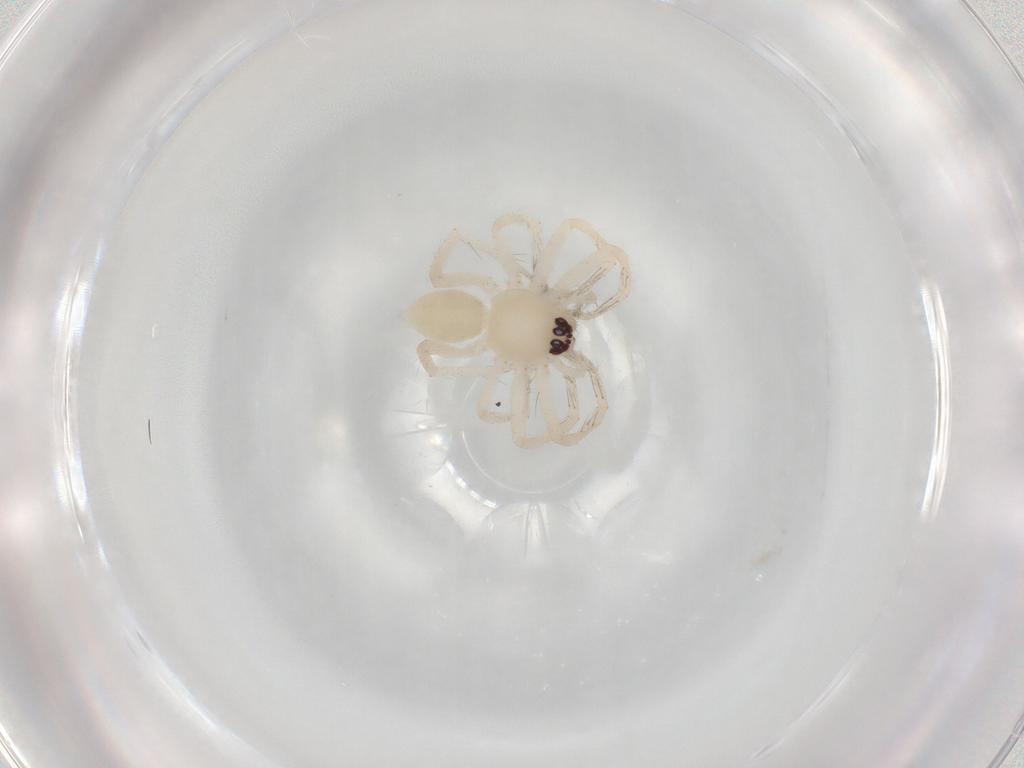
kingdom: Animalia
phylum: Arthropoda
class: Arachnida
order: Araneae
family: Anyphaenidae
